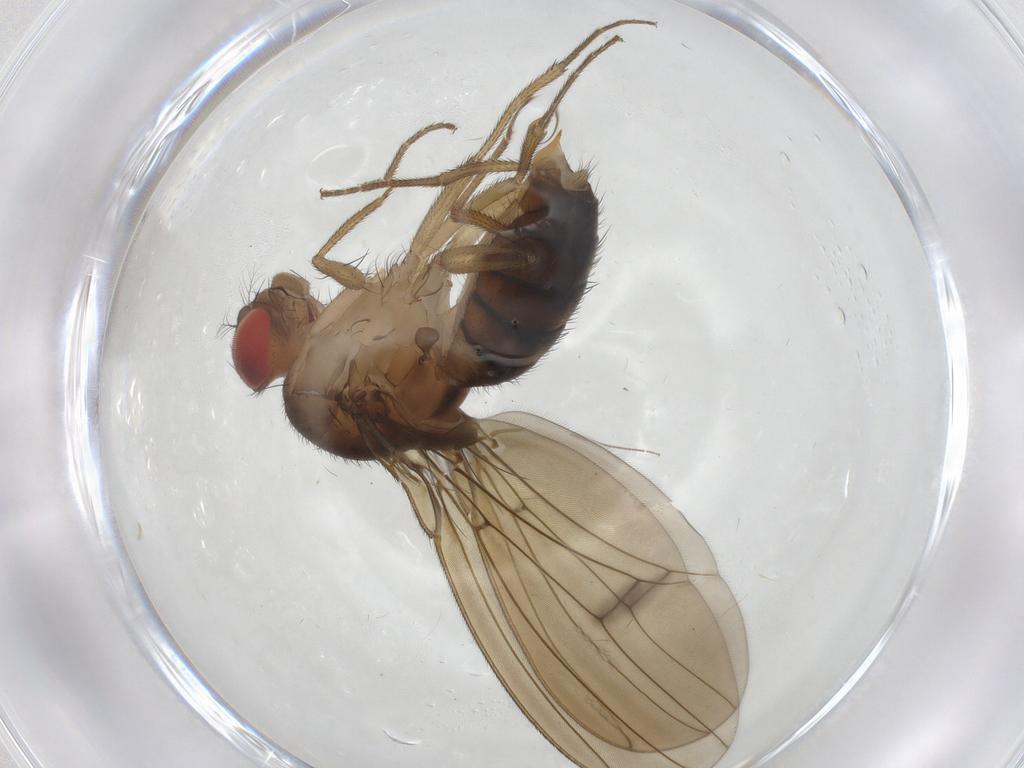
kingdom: Animalia
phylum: Arthropoda
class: Insecta
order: Diptera
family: Drosophilidae
